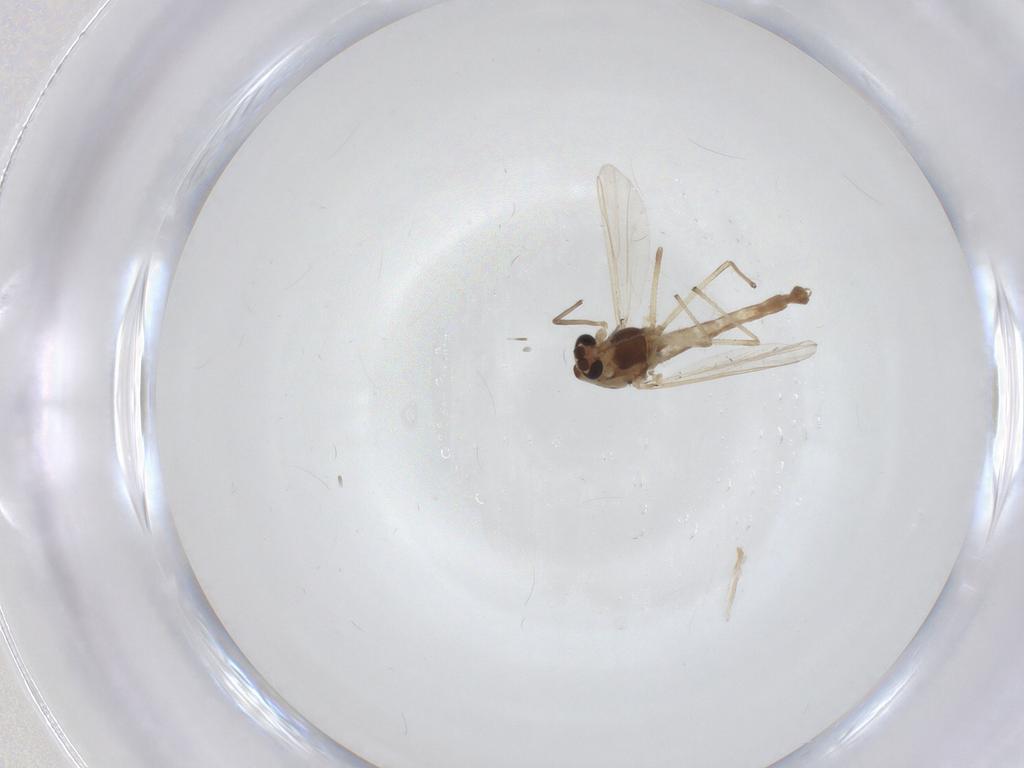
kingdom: Animalia
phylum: Arthropoda
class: Insecta
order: Diptera
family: Chironomidae
